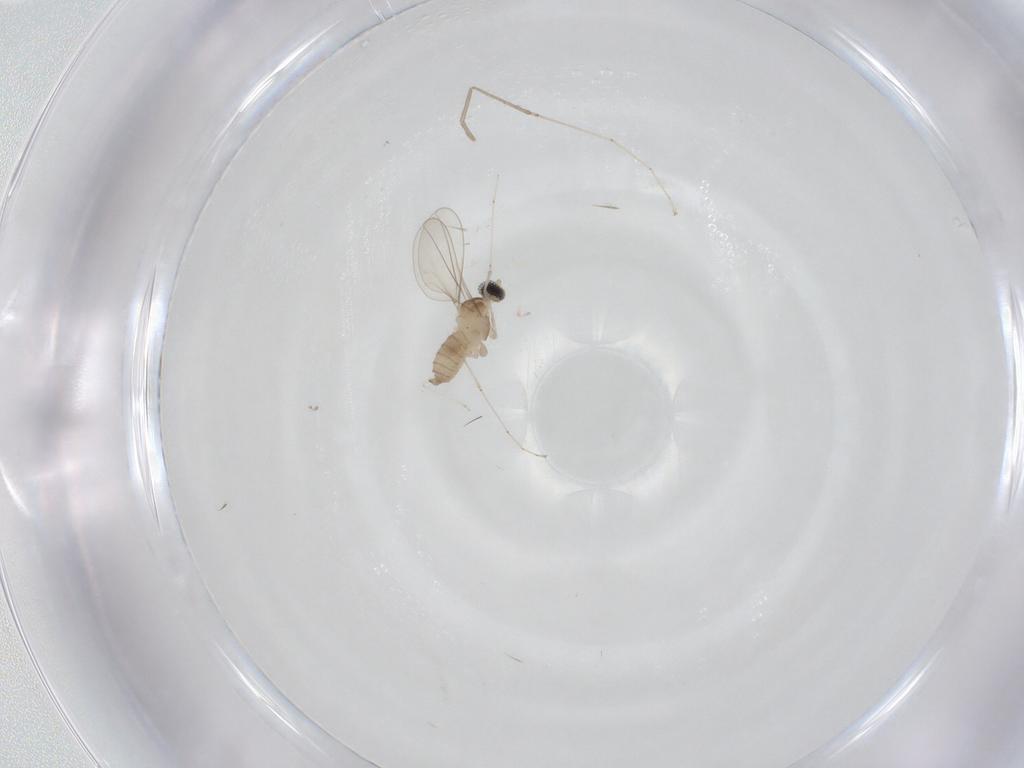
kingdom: Animalia
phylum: Arthropoda
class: Insecta
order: Diptera
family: Cecidomyiidae
